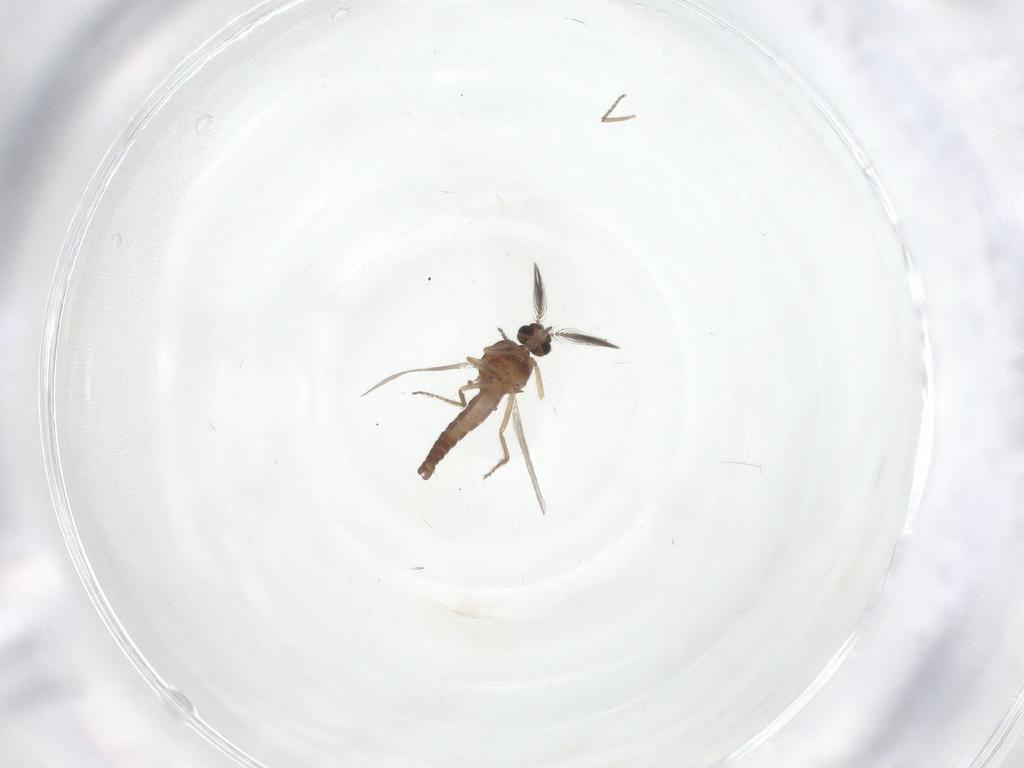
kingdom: Animalia
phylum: Arthropoda
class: Insecta
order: Diptera
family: Ceratopogonidae
